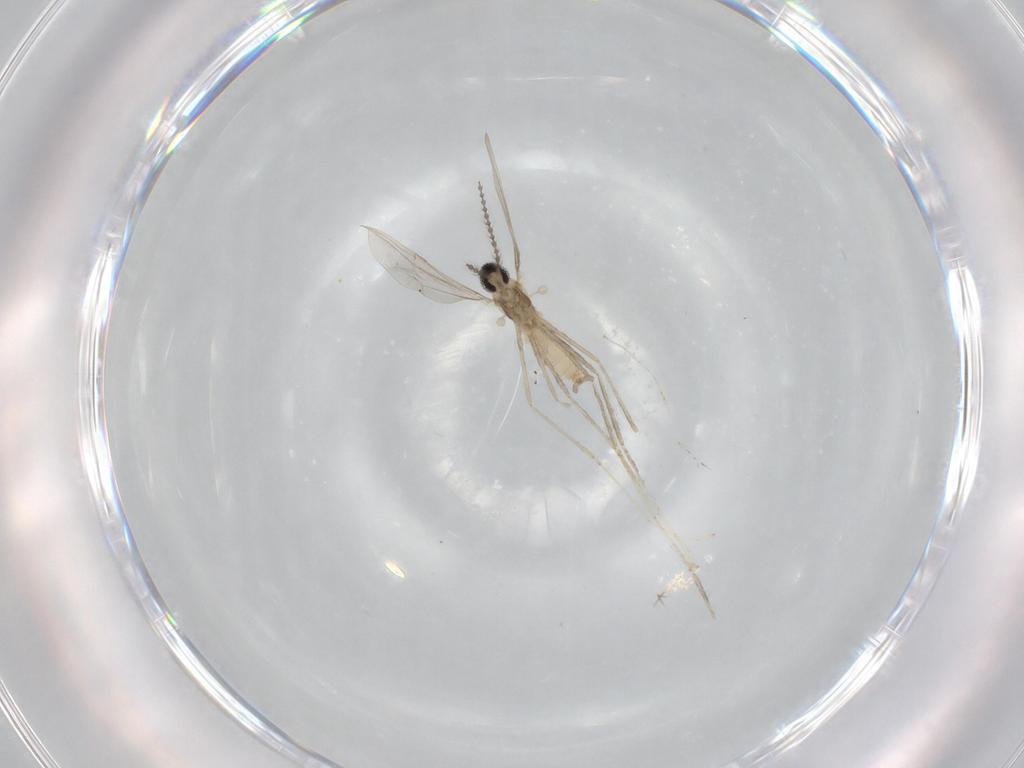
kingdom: Animalia
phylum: Arthropoda
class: Insecta
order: Diptera
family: Cecidomyiidae
